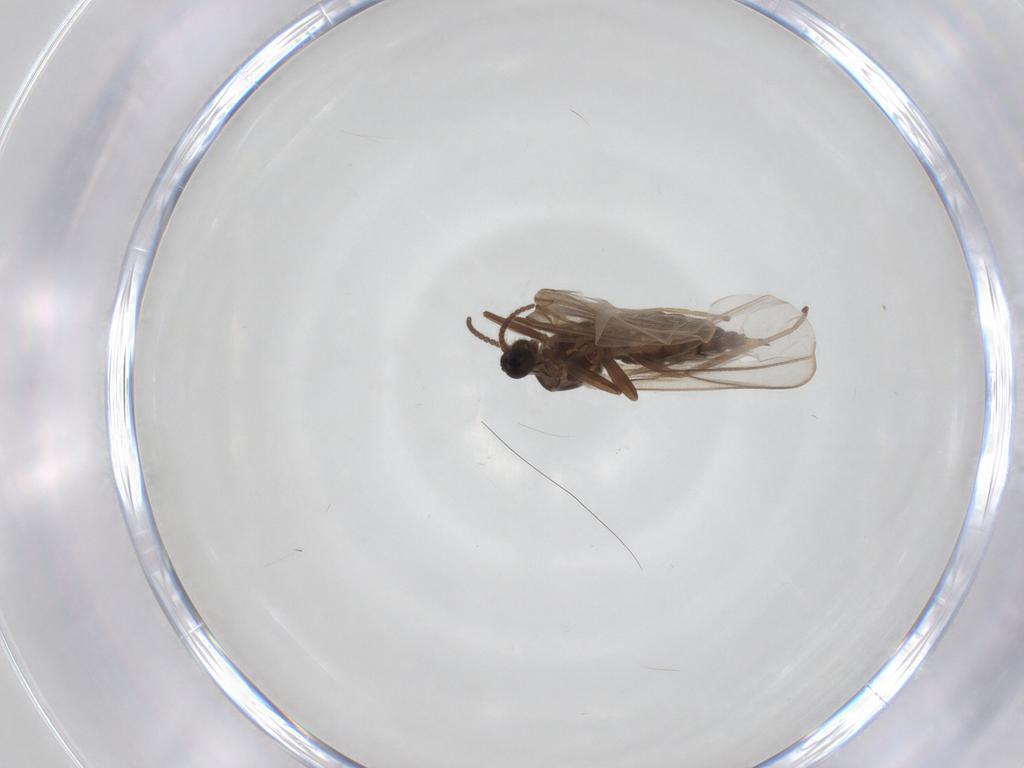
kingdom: Animalia
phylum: Arthropoda
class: Insecta
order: Diptera
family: Cecidomyiidae
